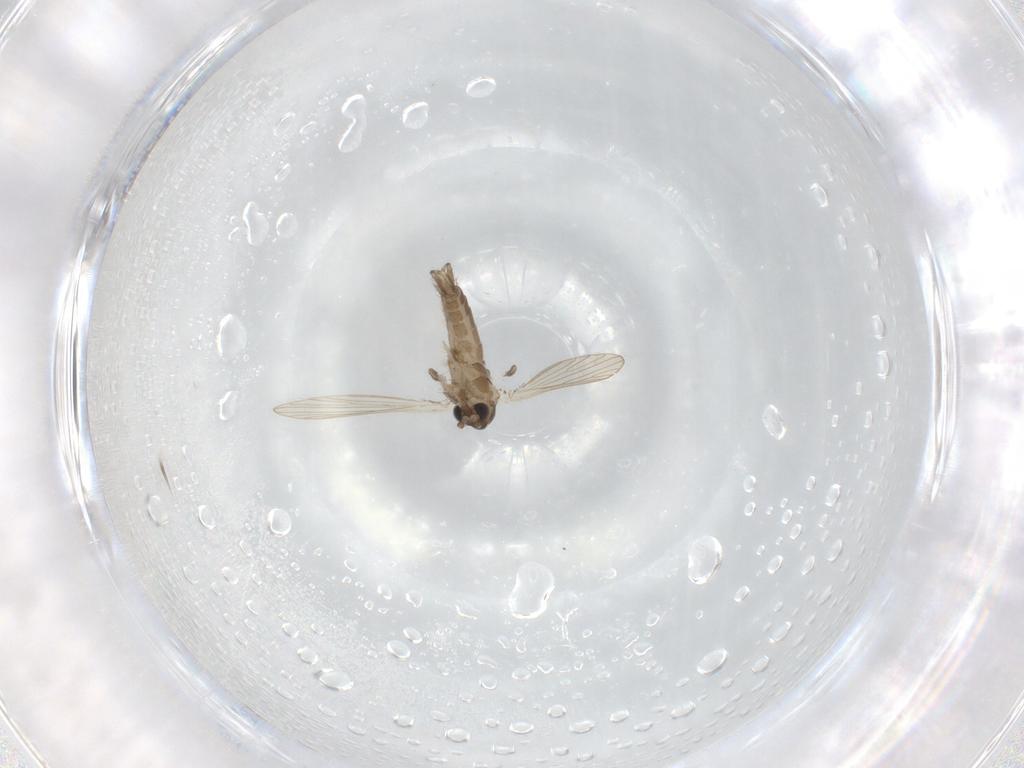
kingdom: Animalia
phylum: Arthropoda
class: Insecta
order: Diptera
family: Psychodidae
